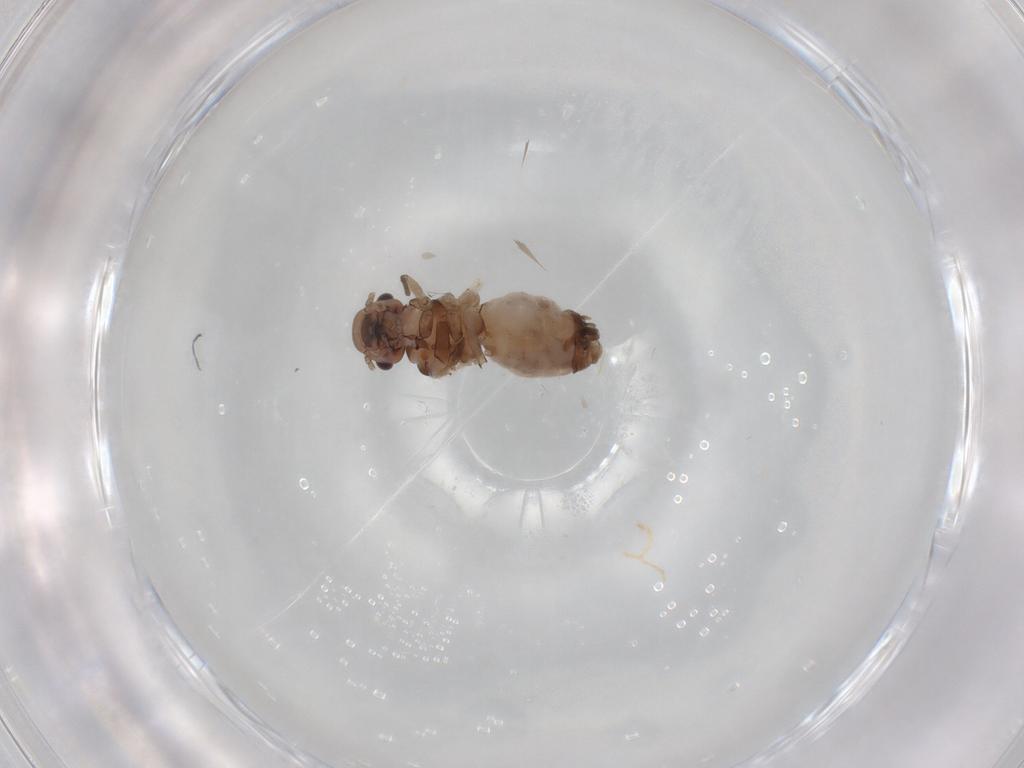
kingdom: Animalia
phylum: Arthropoda
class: Insecta
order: Psocodea
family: Peripsocidae
